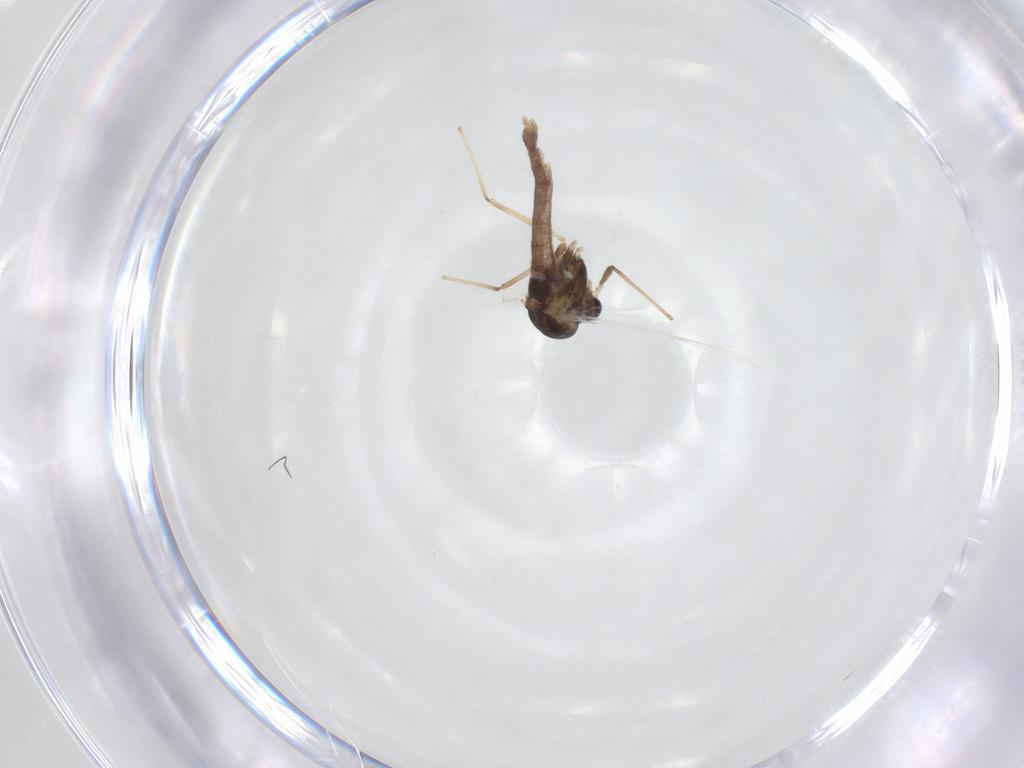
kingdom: Animalia
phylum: Arthropoda
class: Insecta
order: Diptera
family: Chironomidae
